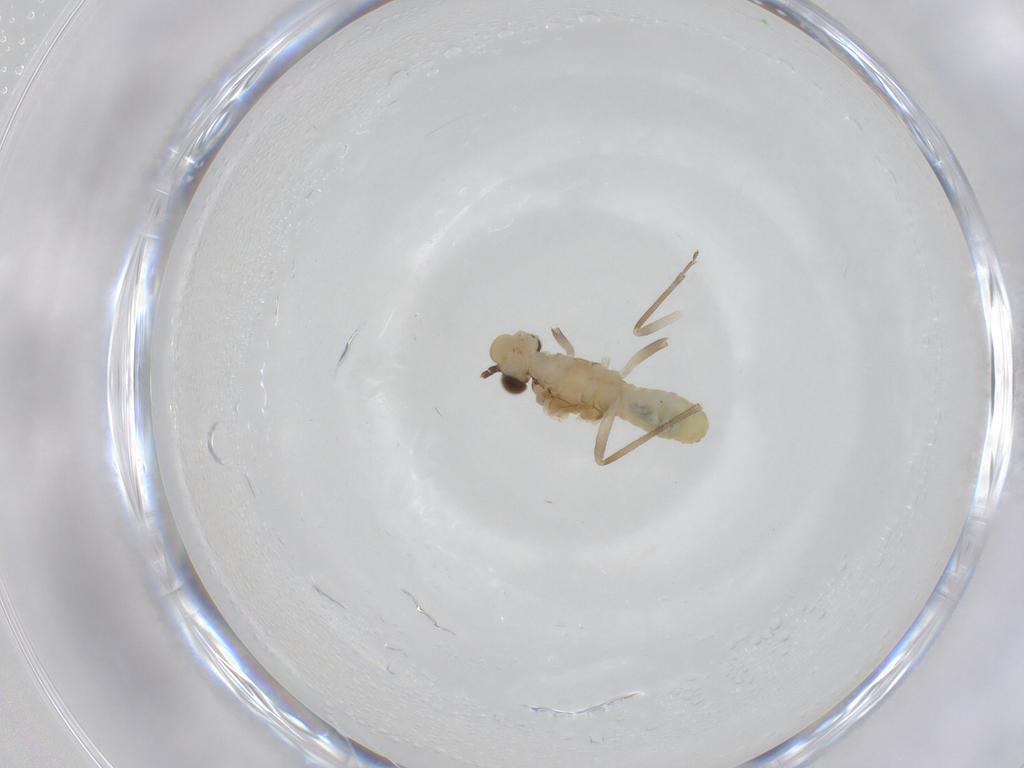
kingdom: Animalia
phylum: Arthropoda
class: Insecta
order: Psocodea
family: Caeciliusidae
